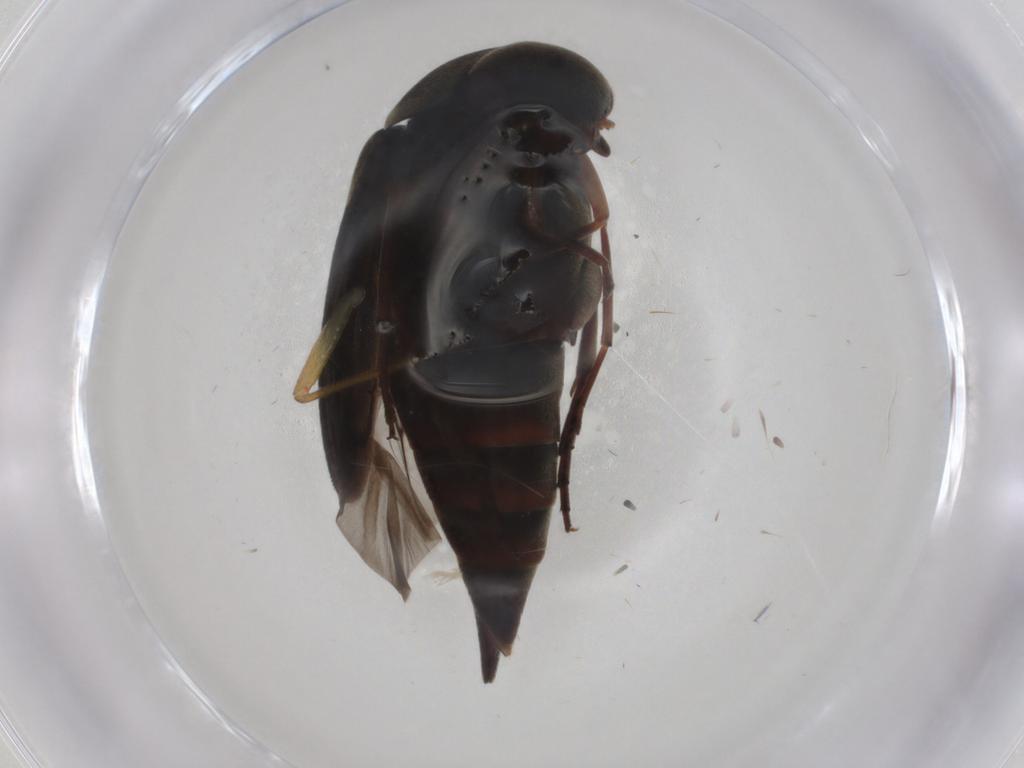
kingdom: Animalia
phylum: Arthropoda
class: Insecta
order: Coleoptera
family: Mordellidae
